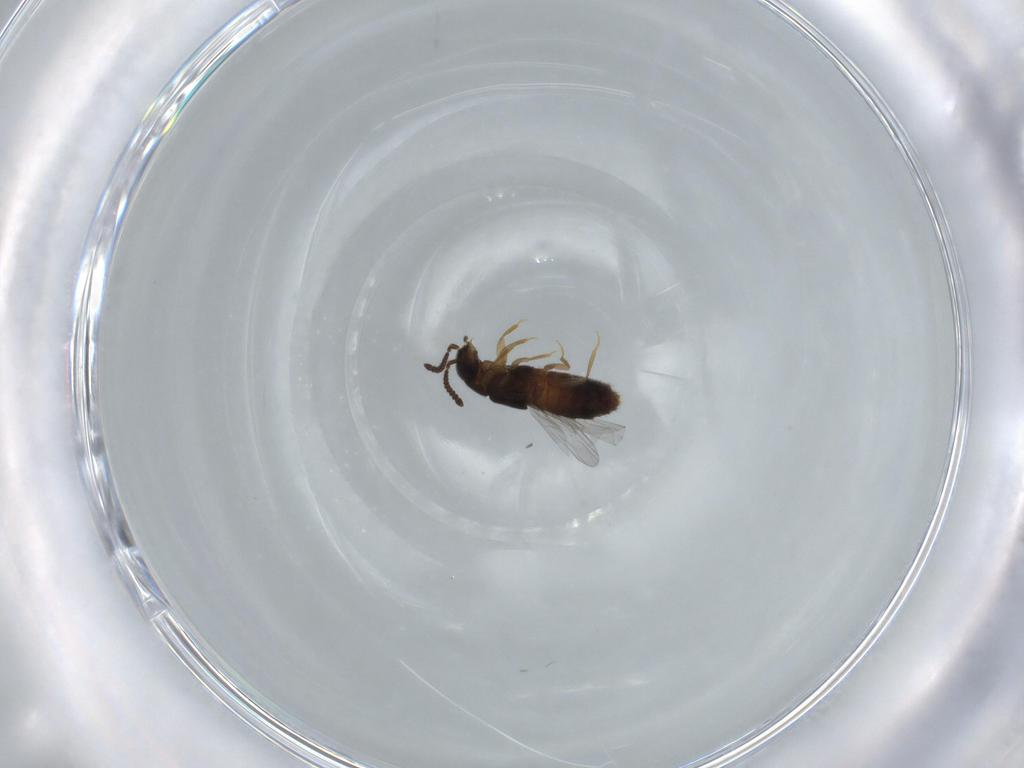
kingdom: Animalia
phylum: Arthropoda
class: Insecta
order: Coleoptera
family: Staphylinidae
